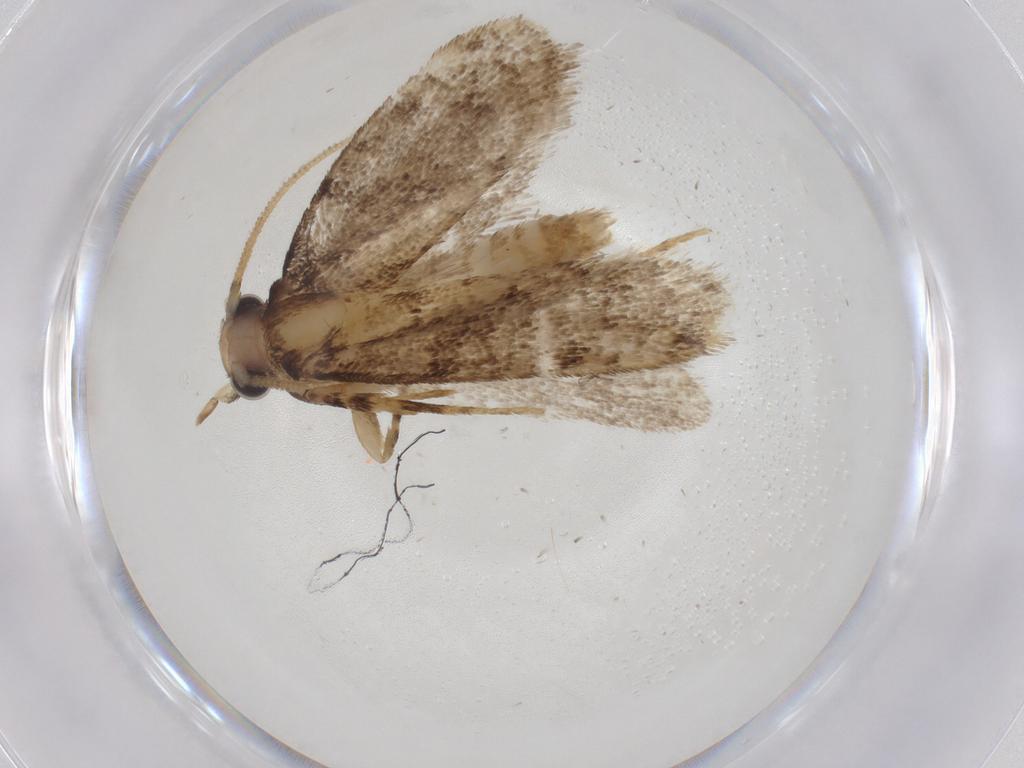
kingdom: Animalia
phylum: Arthropoda
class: Insecta
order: Lepidoptera
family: Tineidae
